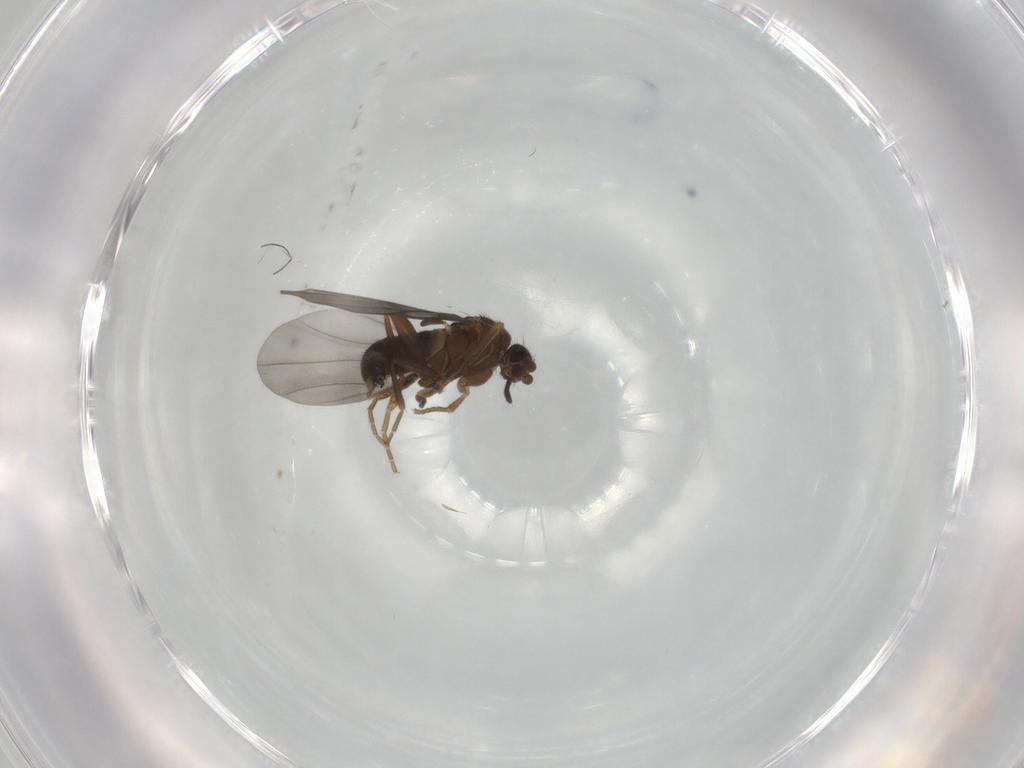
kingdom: Animalia
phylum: Arthropoda
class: Insecta
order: Diptera
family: Phoridae
